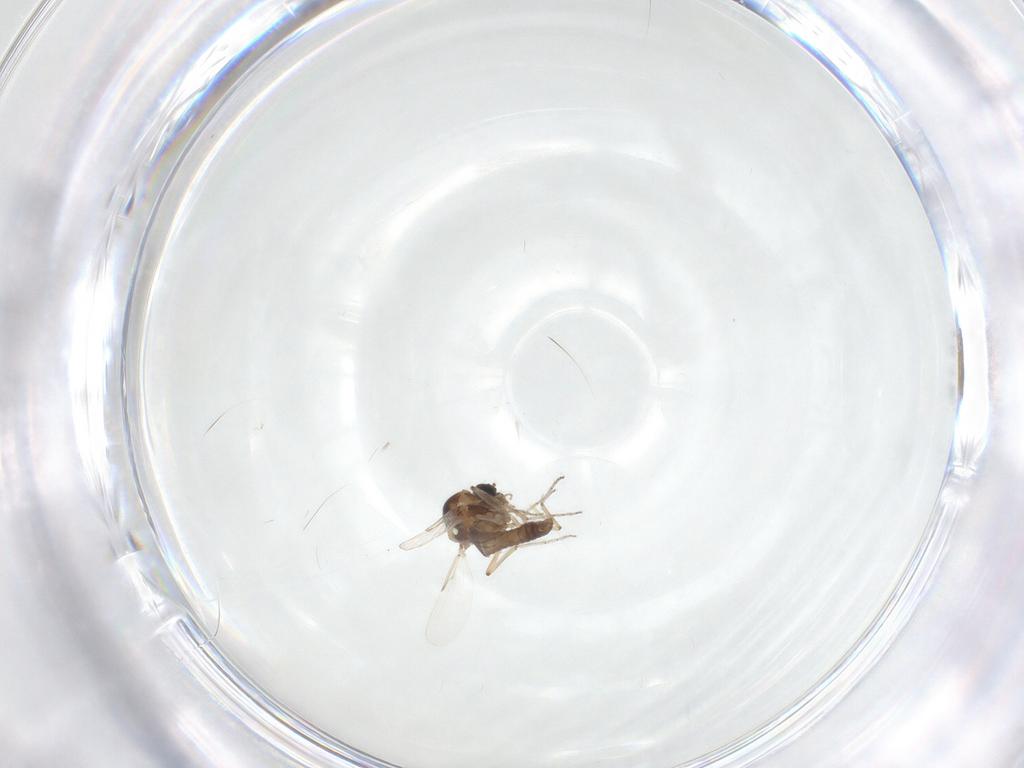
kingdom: Animalia
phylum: Arthropoda
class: Insecta
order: Diptera
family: Ceratopogonidae
